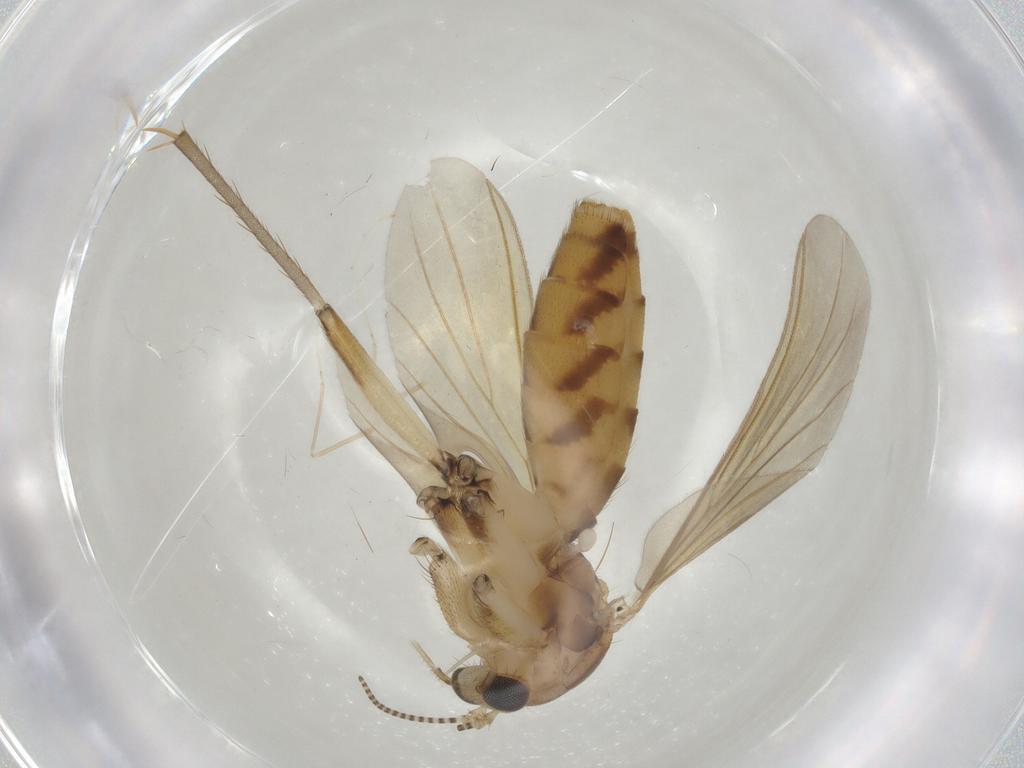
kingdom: Animalia
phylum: Arthropoda
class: Insecta
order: Diptera
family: Mycetophilidae
